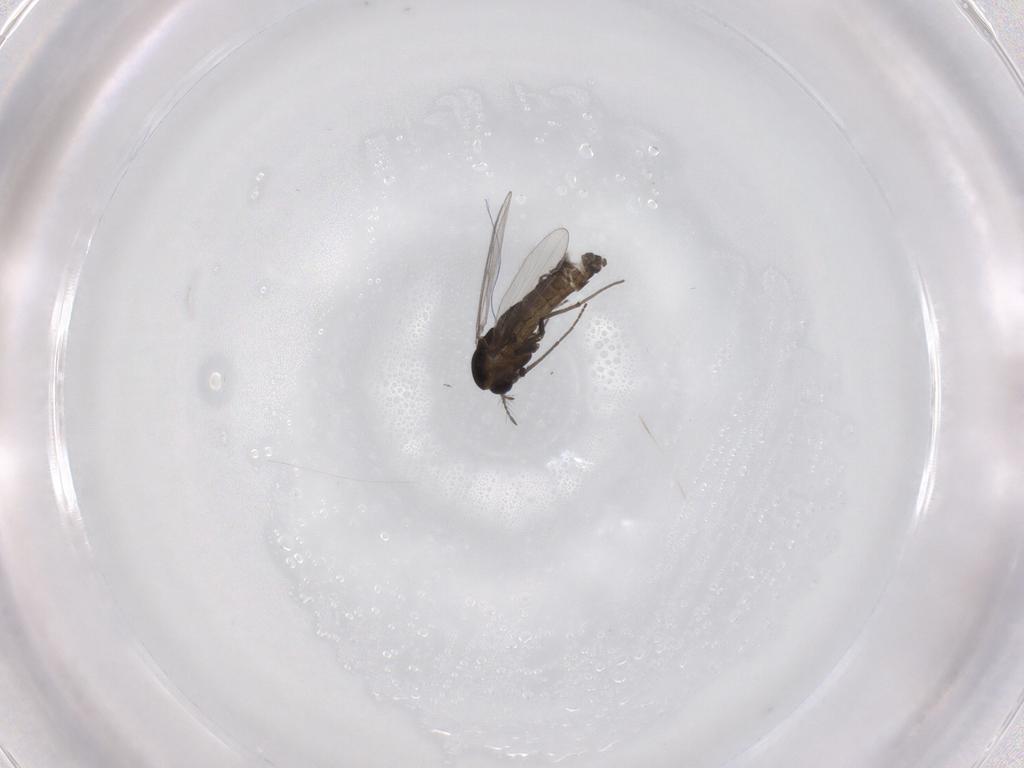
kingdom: Animalia
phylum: Arthropoda
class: Insecta
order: Diptera
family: Chironomidae
